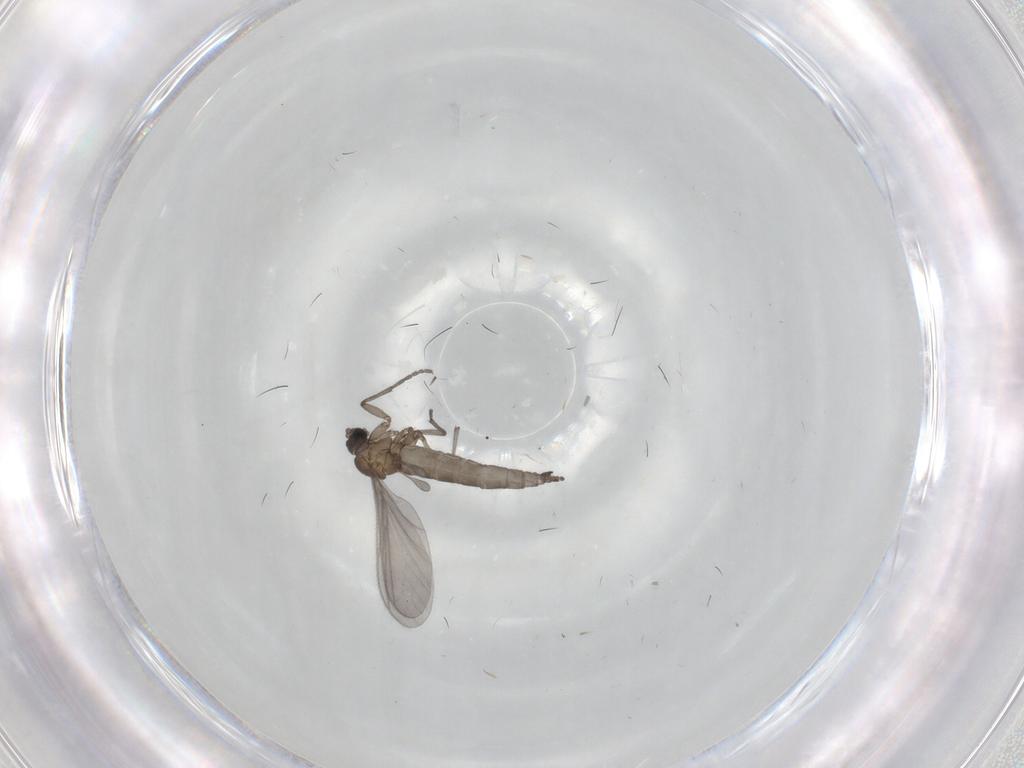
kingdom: Animalia
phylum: Arthropoda
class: Insecta
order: Diptera
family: Sciaridae
